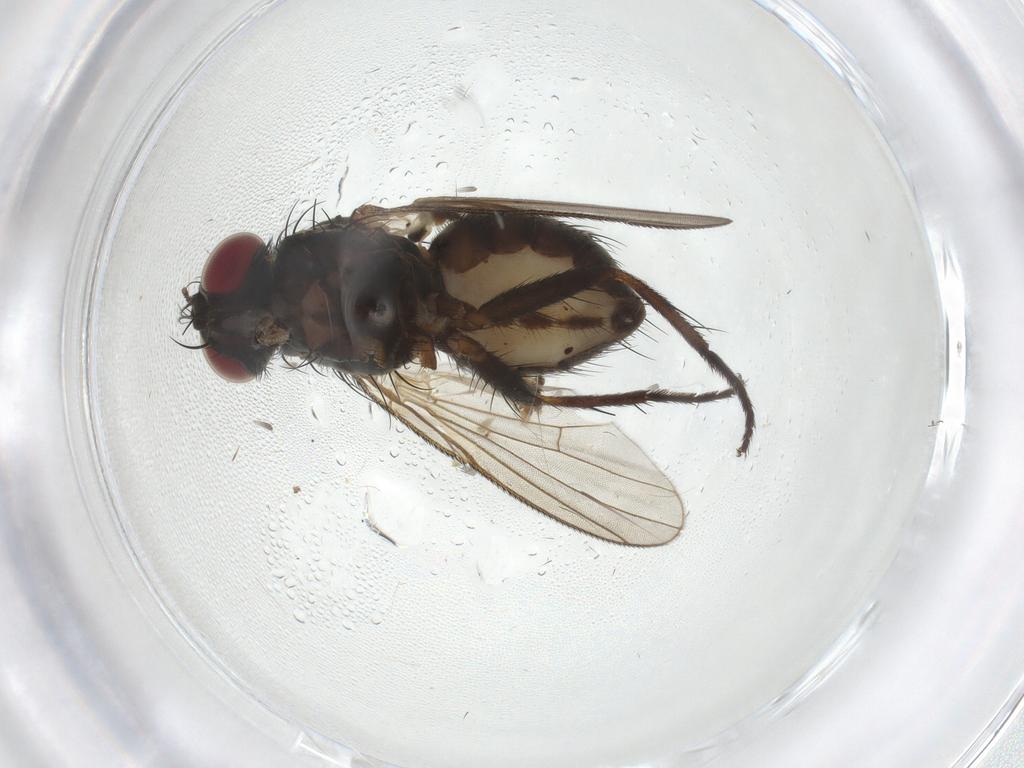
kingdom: Animalia
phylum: Arthropoda
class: Insecta
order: Diptera
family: Muscidae
